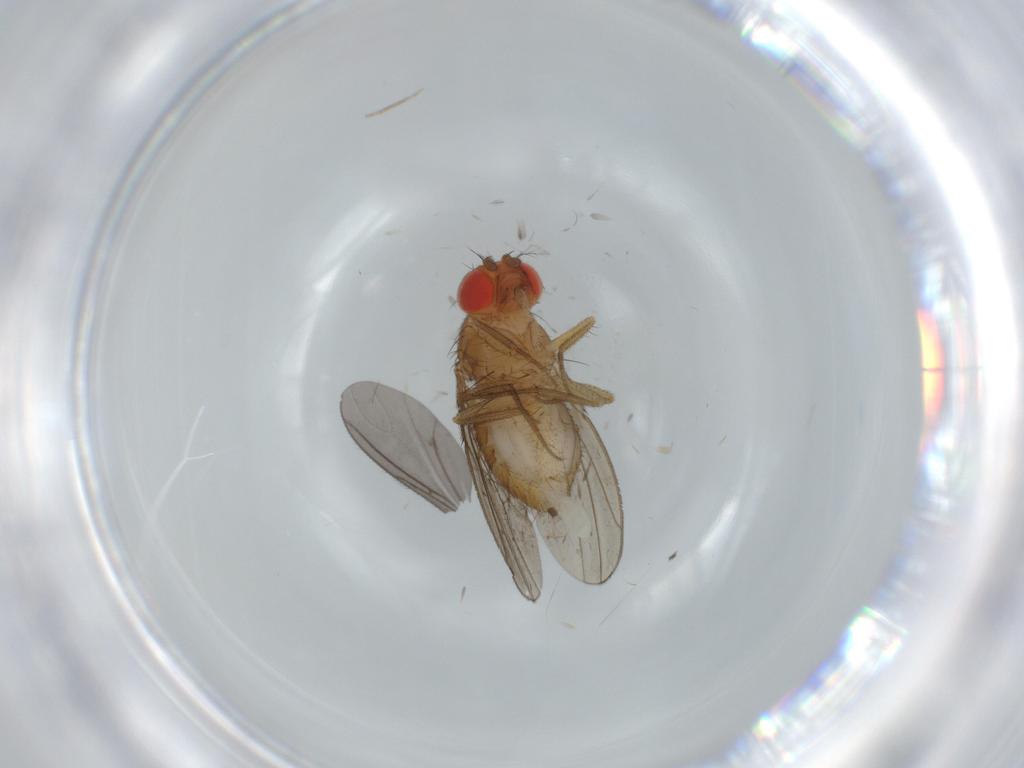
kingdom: Animalia
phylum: Arthropoda
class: Insecta
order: Diptera
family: Drosophilidae
